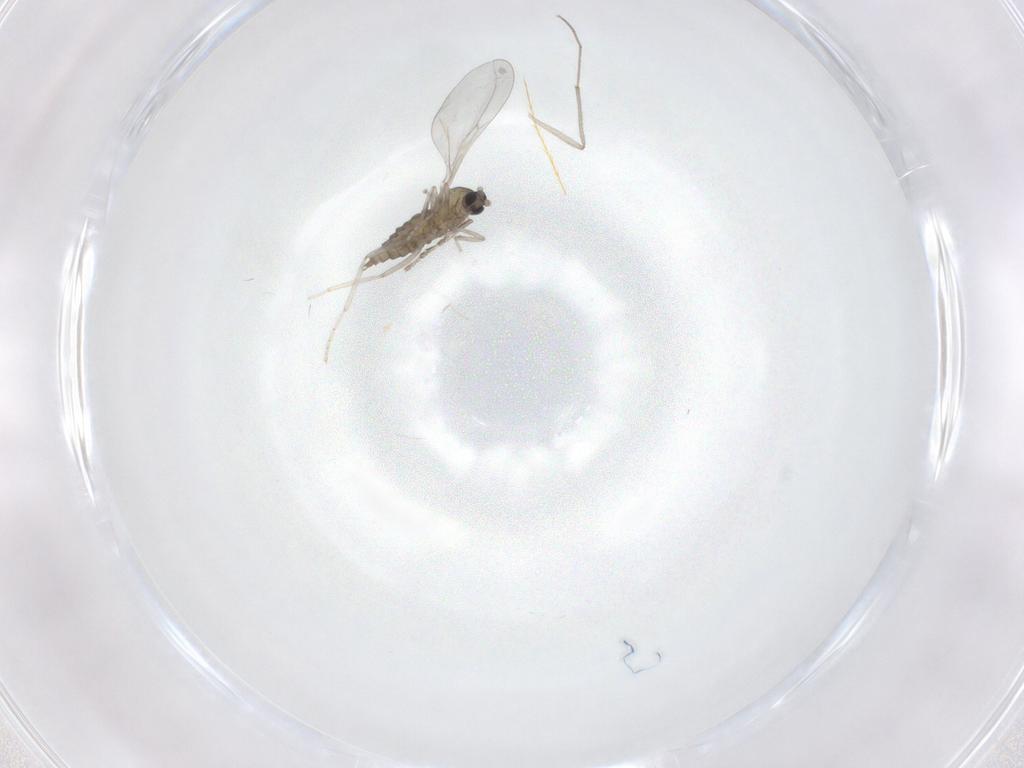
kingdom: Animalia
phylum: Arthropoda
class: Insecta
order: Diptera
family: Cecidomyiidae
